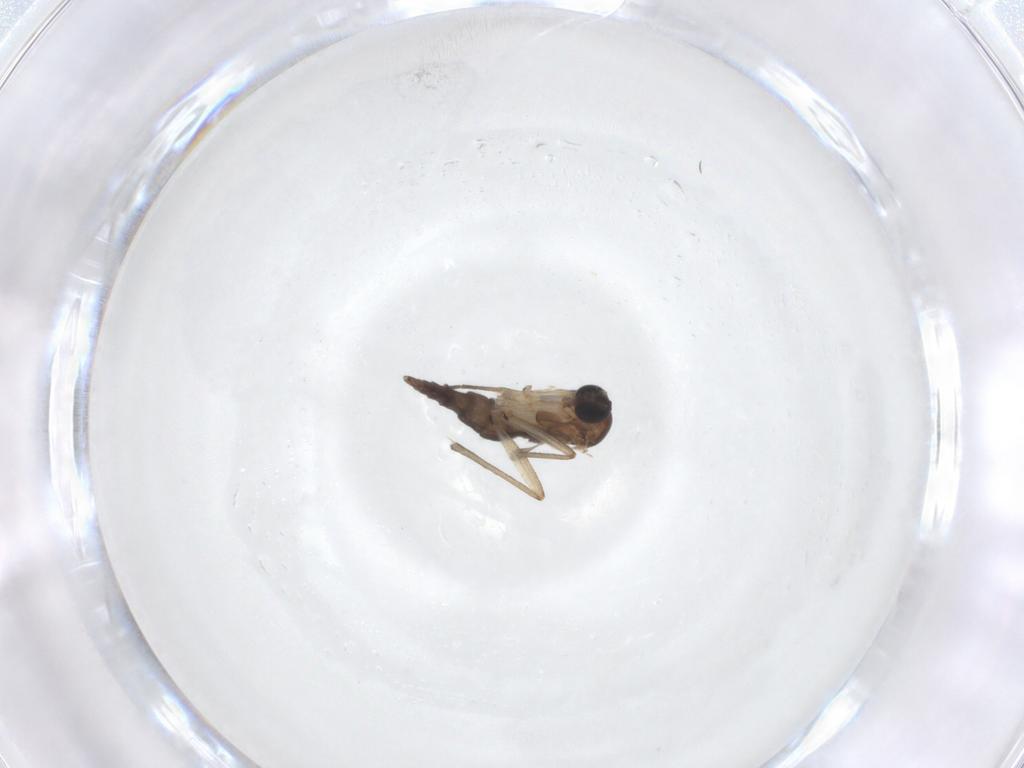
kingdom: Animalia
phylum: Arthropoda
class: Insecta
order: Diptera
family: Sciaridae
